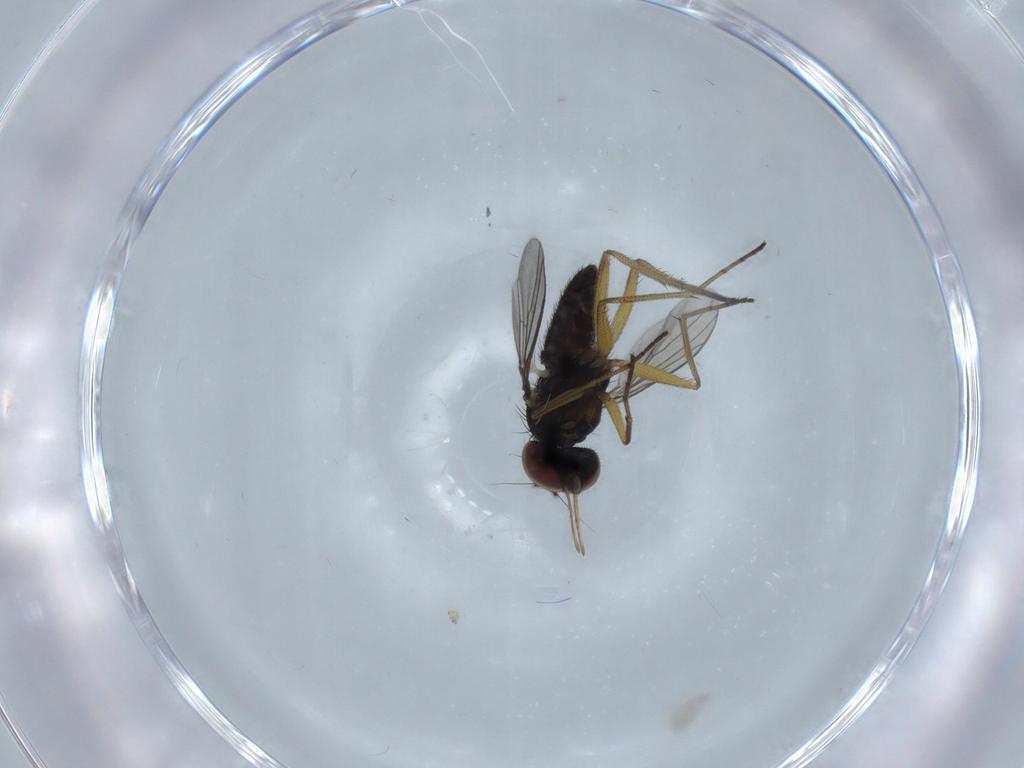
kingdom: Animalia
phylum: Arthropoda
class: Insecta
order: Diptera
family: Dolichopodidae
